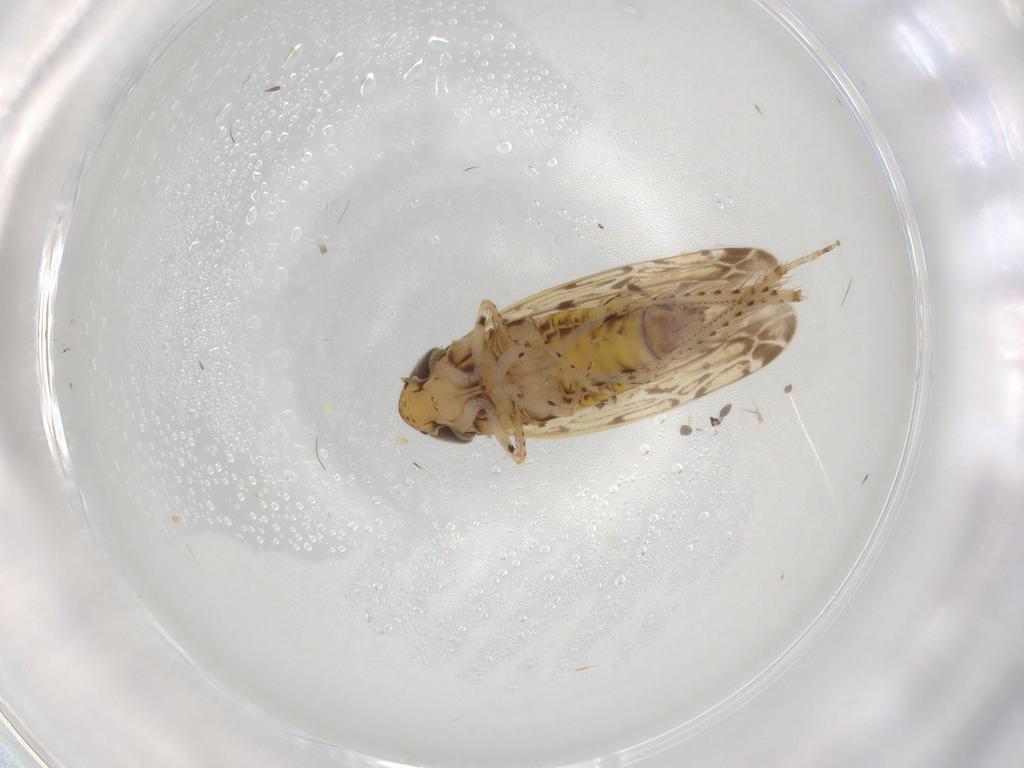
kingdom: Animalia
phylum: Arthropoda
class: Insecta
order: Hemiptera
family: Cicadellidae
